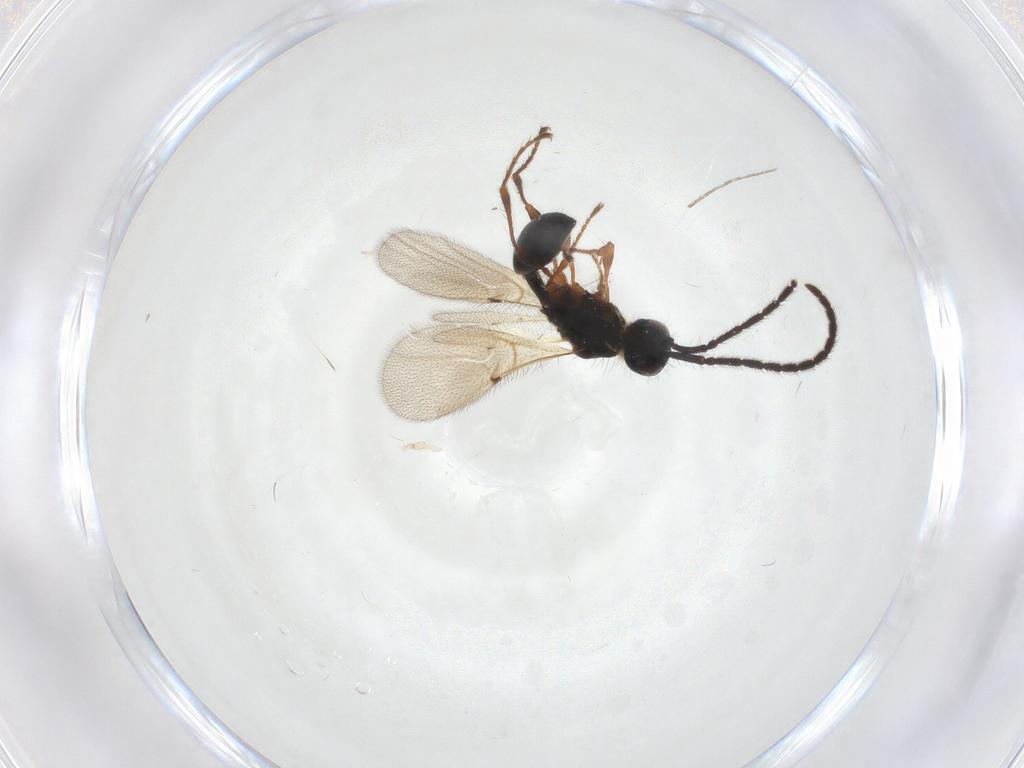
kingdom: Animalia
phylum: Arthropoda
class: Insecta
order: Hymenoptera
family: Diapriidae
